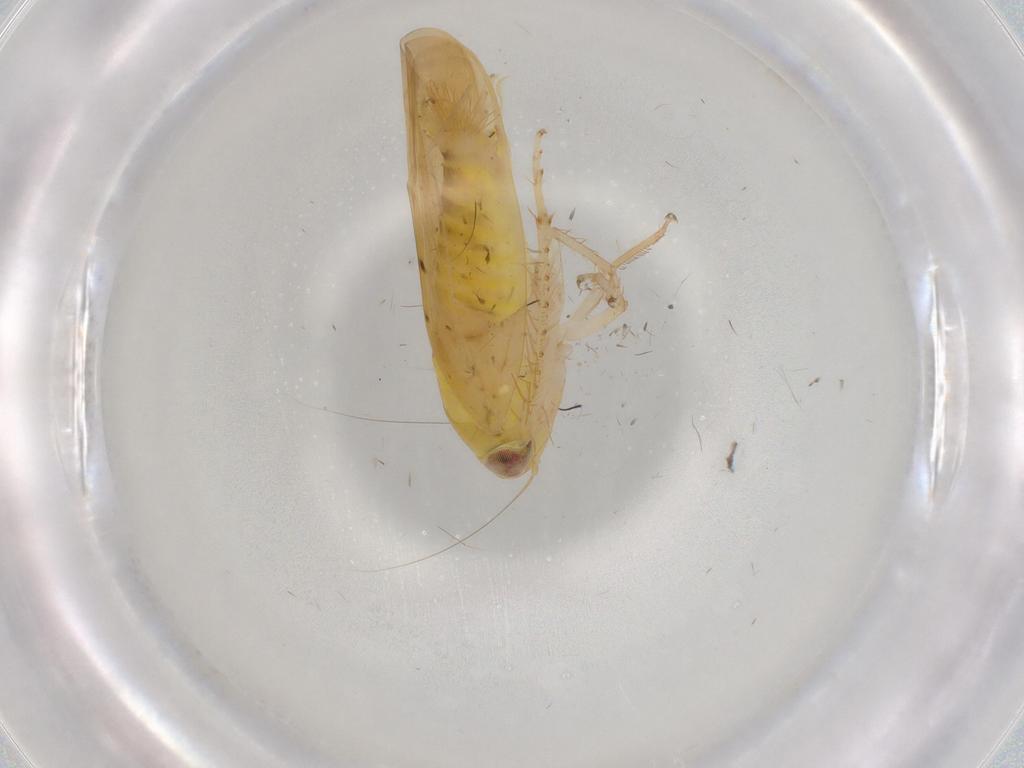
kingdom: Animalia
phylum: Arthropoda
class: Insecta
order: Hemiptera
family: Cicadellidae
